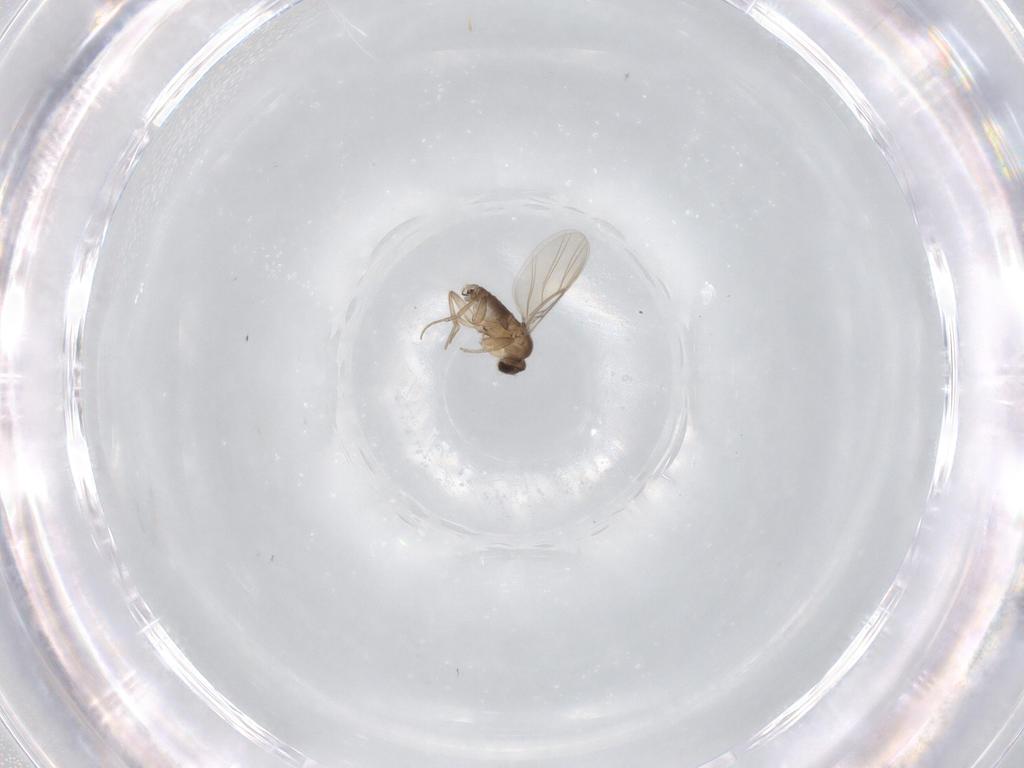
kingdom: Animalia
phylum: Arthropoda
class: Insecta
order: Diptera
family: Phoridae
